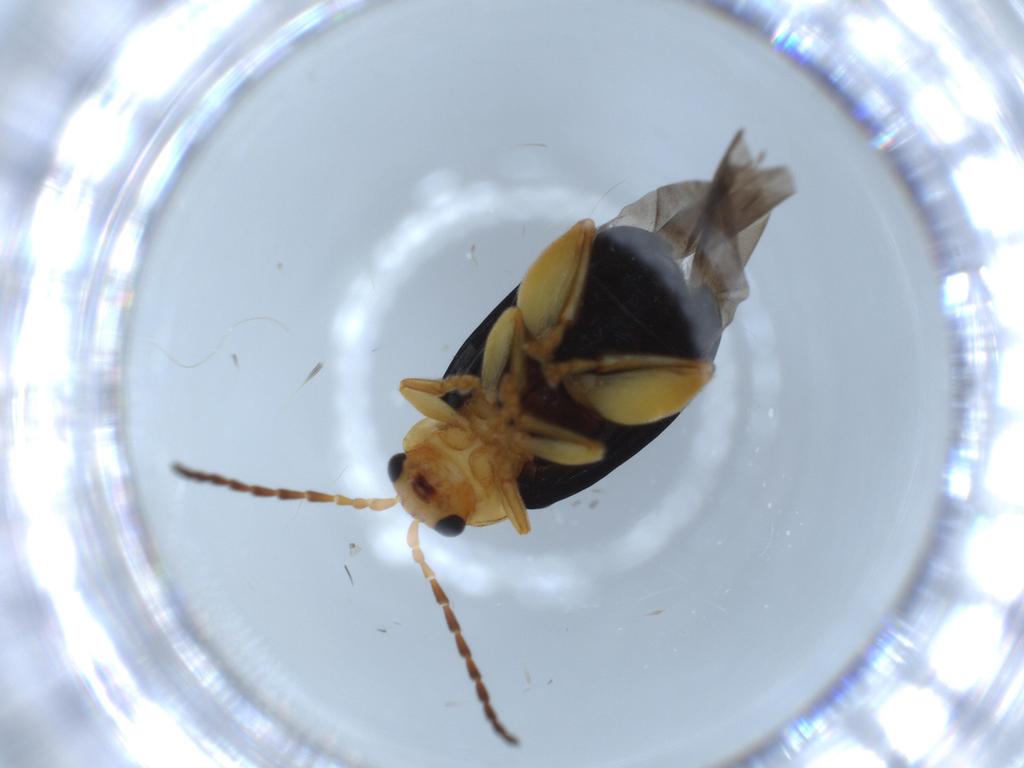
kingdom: Animalia
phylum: Arthropoda
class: Insecta
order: Coleoptera
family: Chrysomelidae
